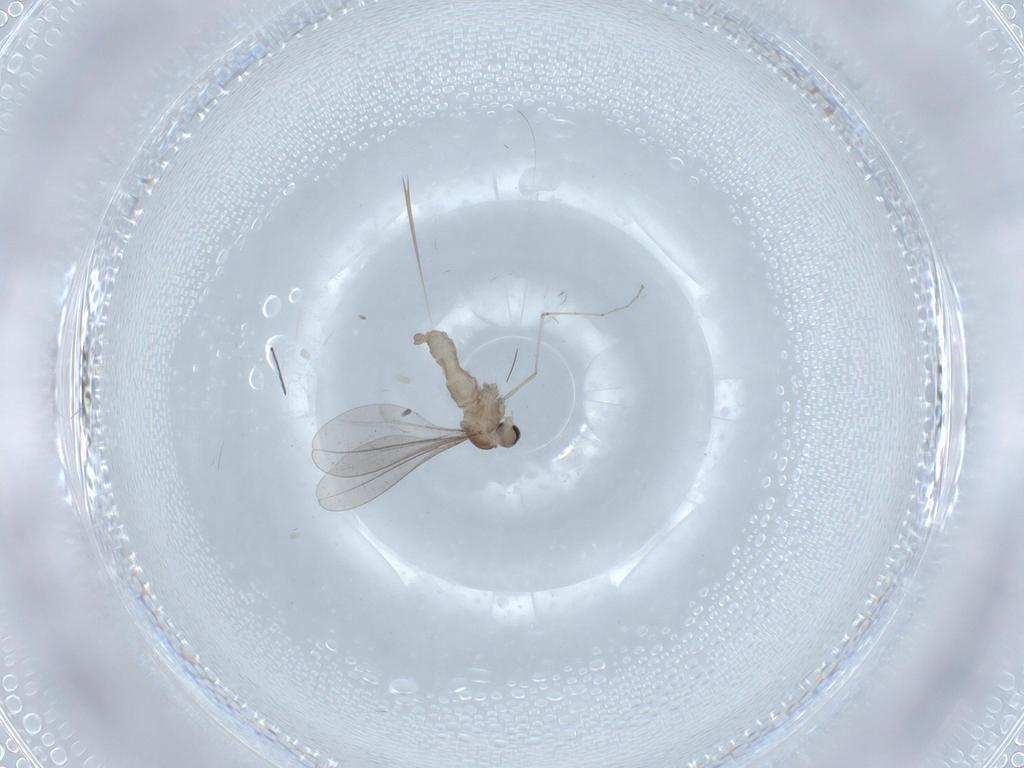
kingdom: Animalia
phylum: Arthropoda
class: Insecta
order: Diptera
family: Cecidomyiidae
